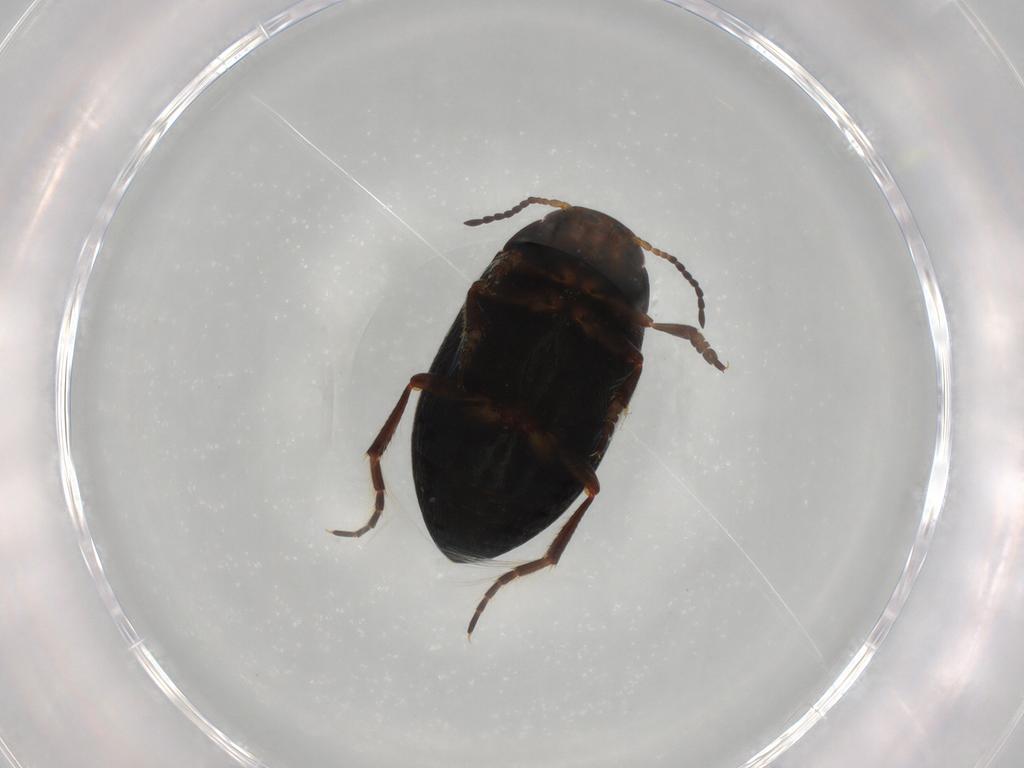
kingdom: Animalia
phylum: Arthropoda
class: Insecta
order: Coleoptera
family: Dytiscidae
